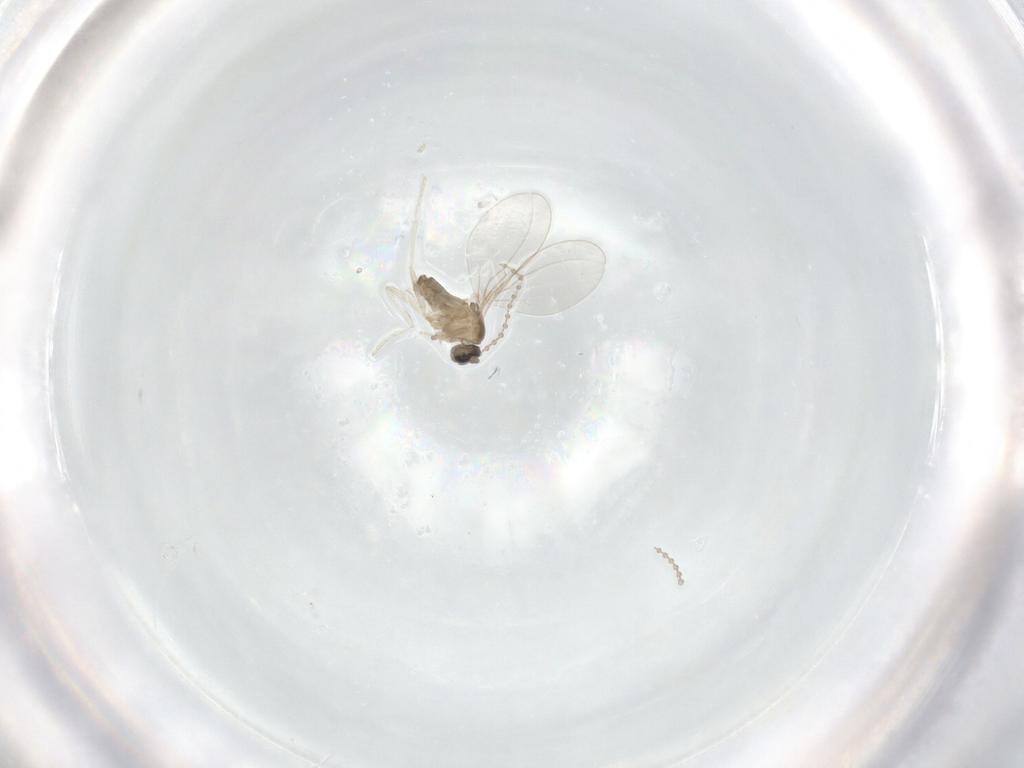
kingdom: Animalia
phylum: Arthropoda
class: Insecta
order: Diptera
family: Cecidomyiidae
